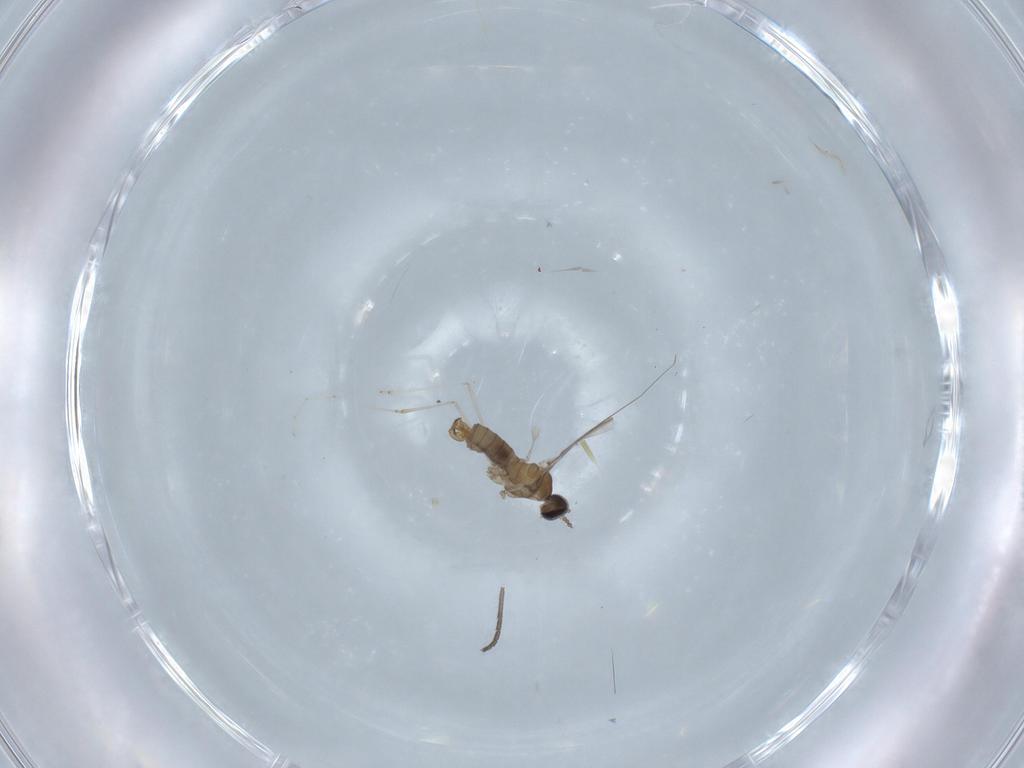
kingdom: Animalia
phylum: Arthropoda
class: Insecta
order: Diptera
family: Cecidomyiidae
